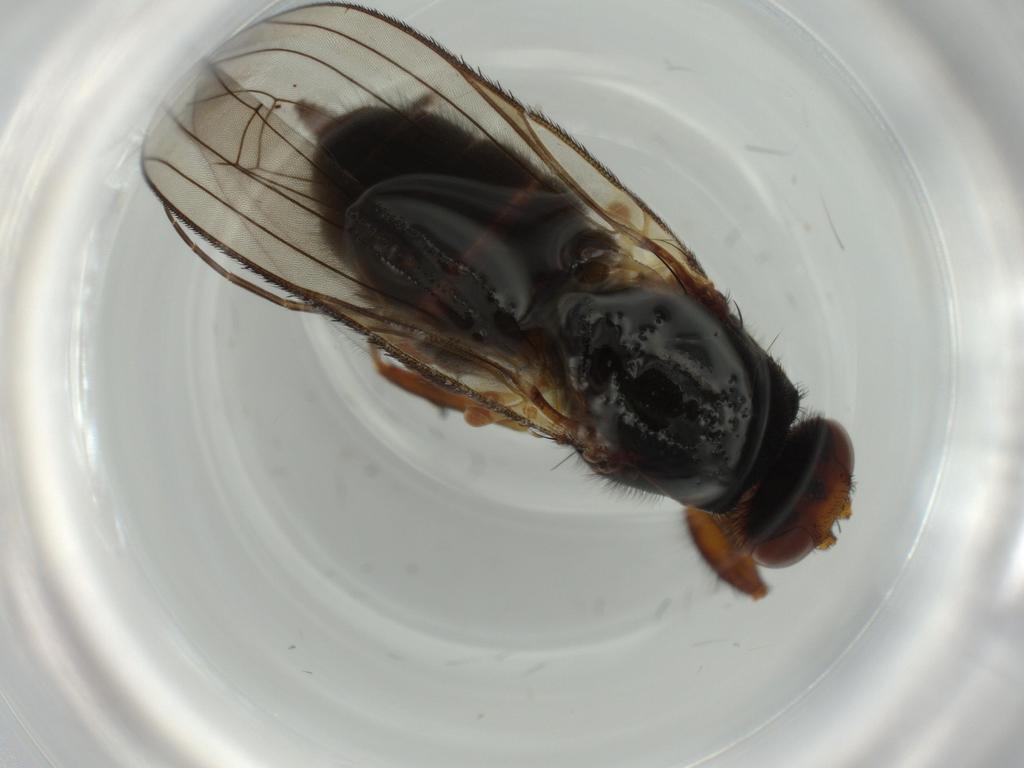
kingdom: Animalia
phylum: Arthropoda
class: Insecta
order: Diptera
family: Heleomyzidae
